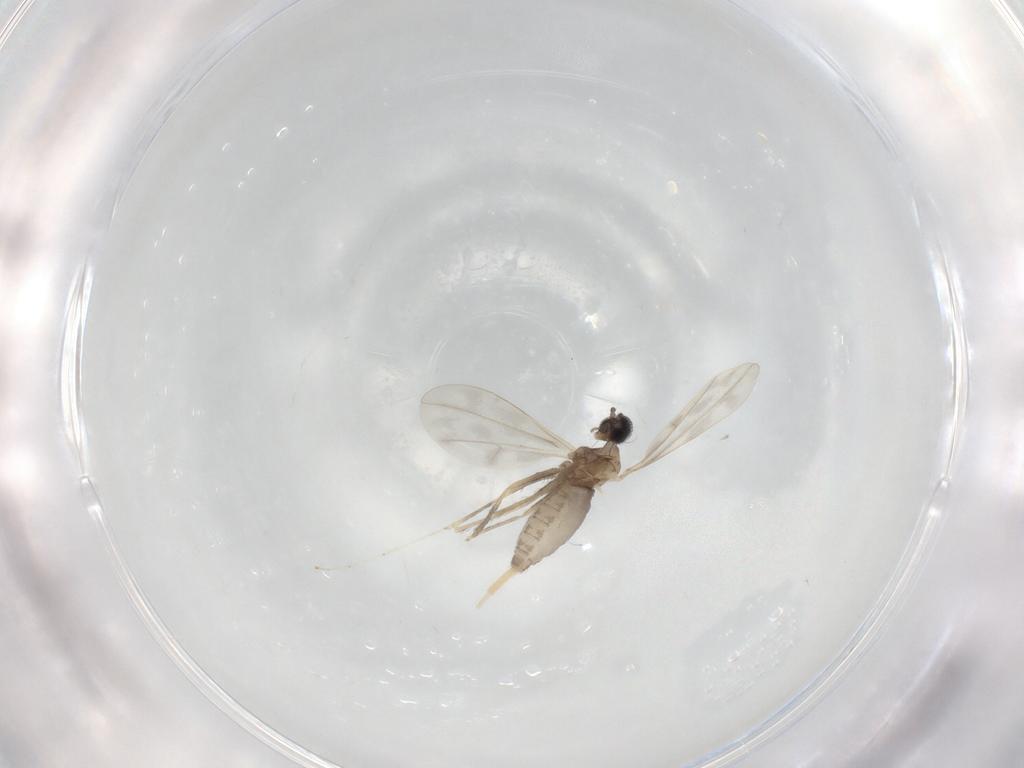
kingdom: Animalia
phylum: Arthropoda
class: Insecta
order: Diptera
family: Cecidomyiidae
